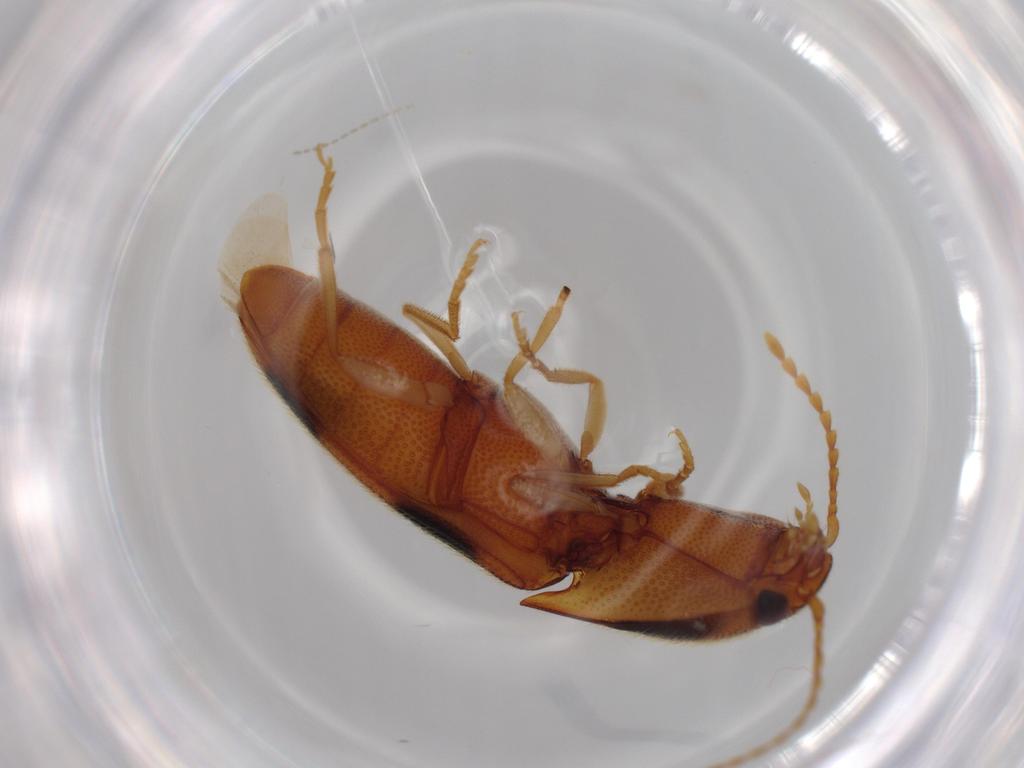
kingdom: Animalia
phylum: Arthropoda
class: Insecta
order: Coleoptera
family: Elateridae
